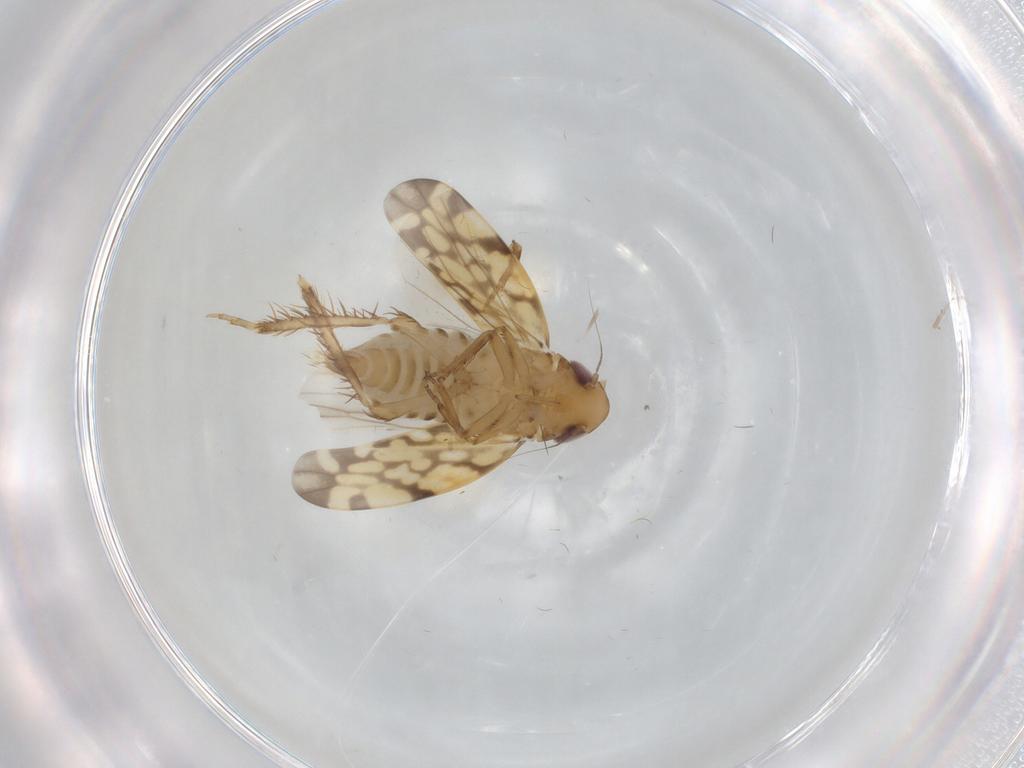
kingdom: Animalia
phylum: Arthropoda
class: Insecta
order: Hemiptera
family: Cicadellidae
